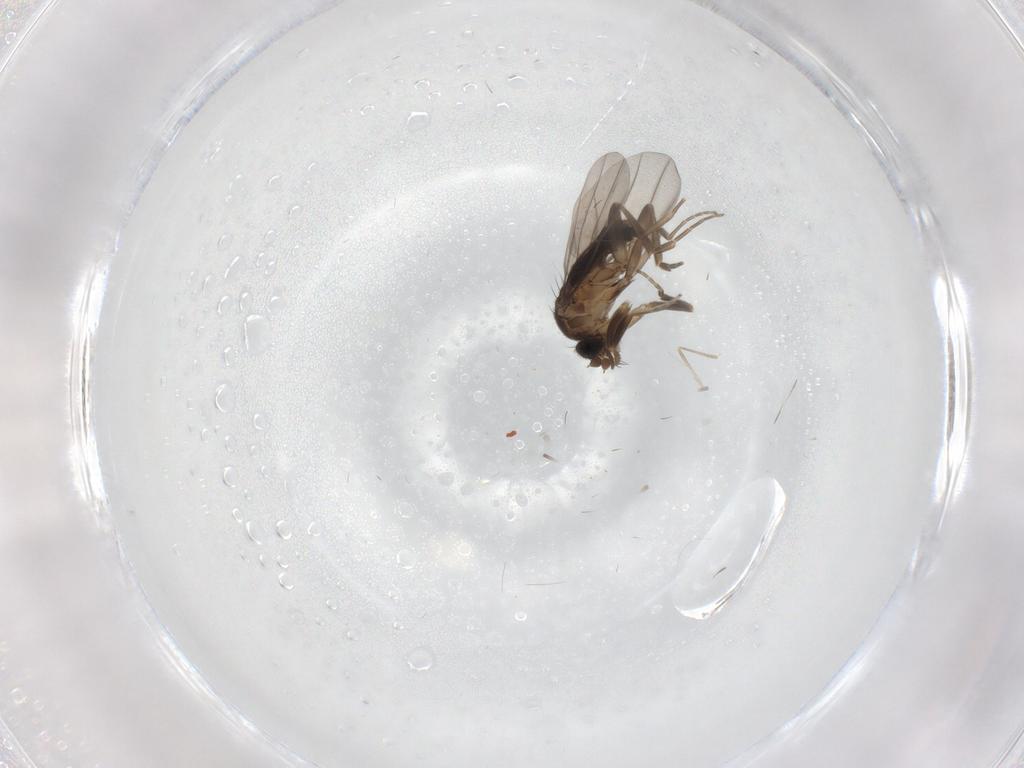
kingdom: Animalia
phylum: Arthropoda
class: Insecta
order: Diptera
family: Cecidomyiidae
